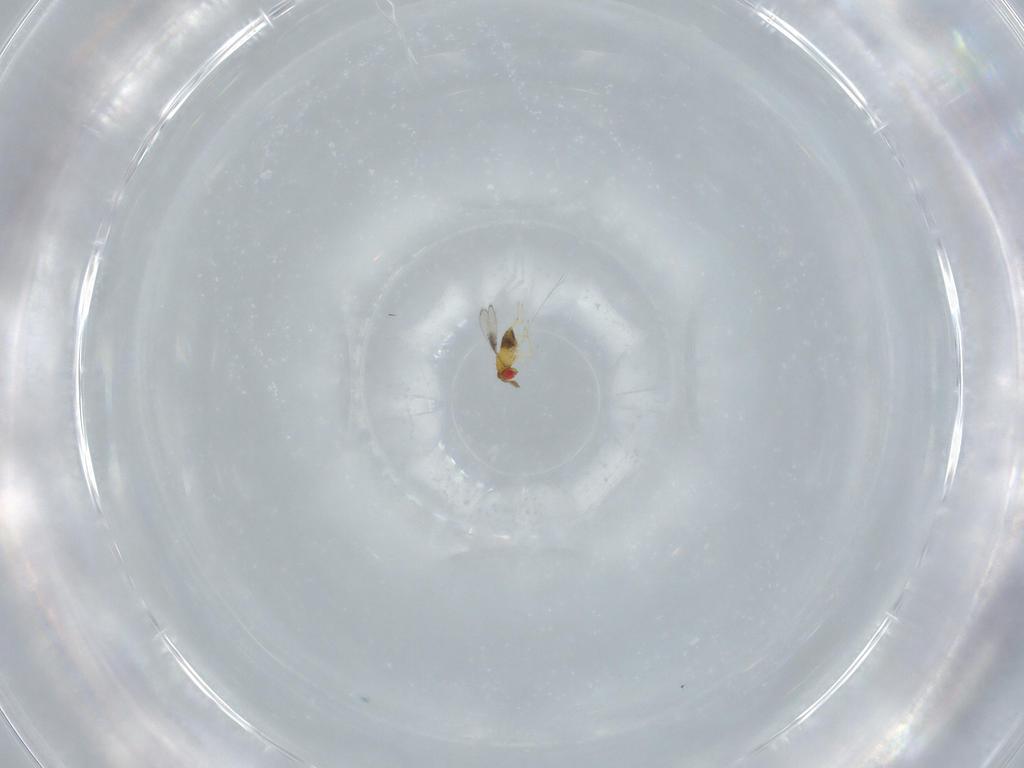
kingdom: Animalia
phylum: Arthropoda
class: Insecta
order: Hymenoptera
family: Trichogrammatidae
